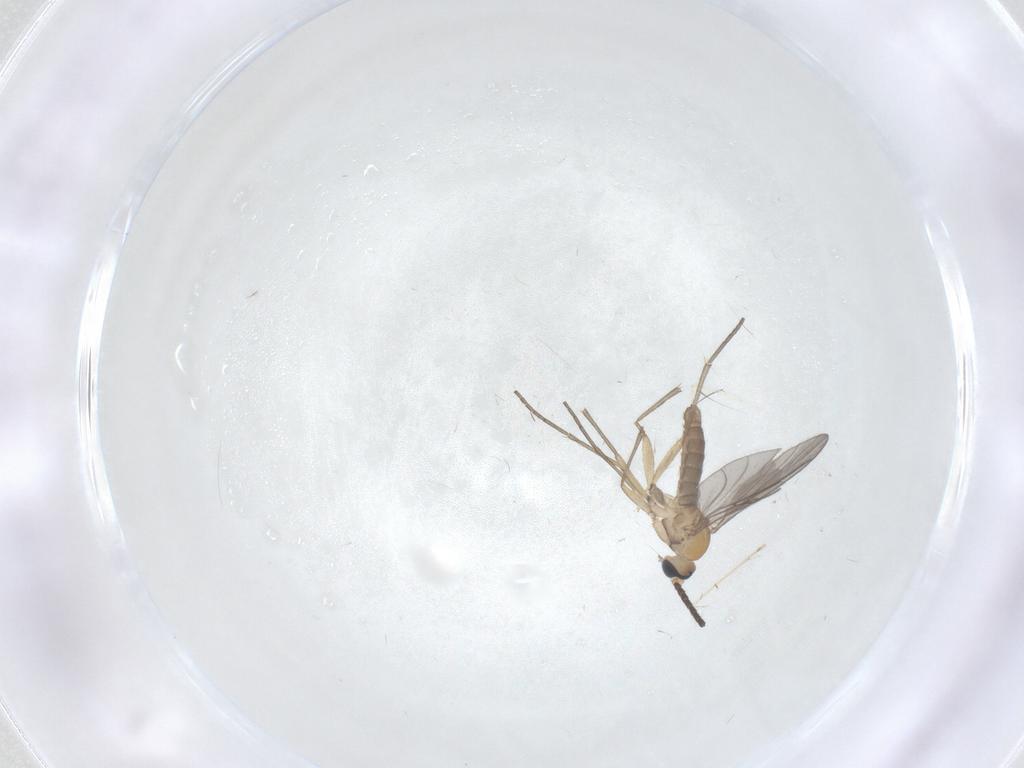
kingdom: Animalia
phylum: Arthropoda
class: Insecta
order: Diptera
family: Sciaridae
